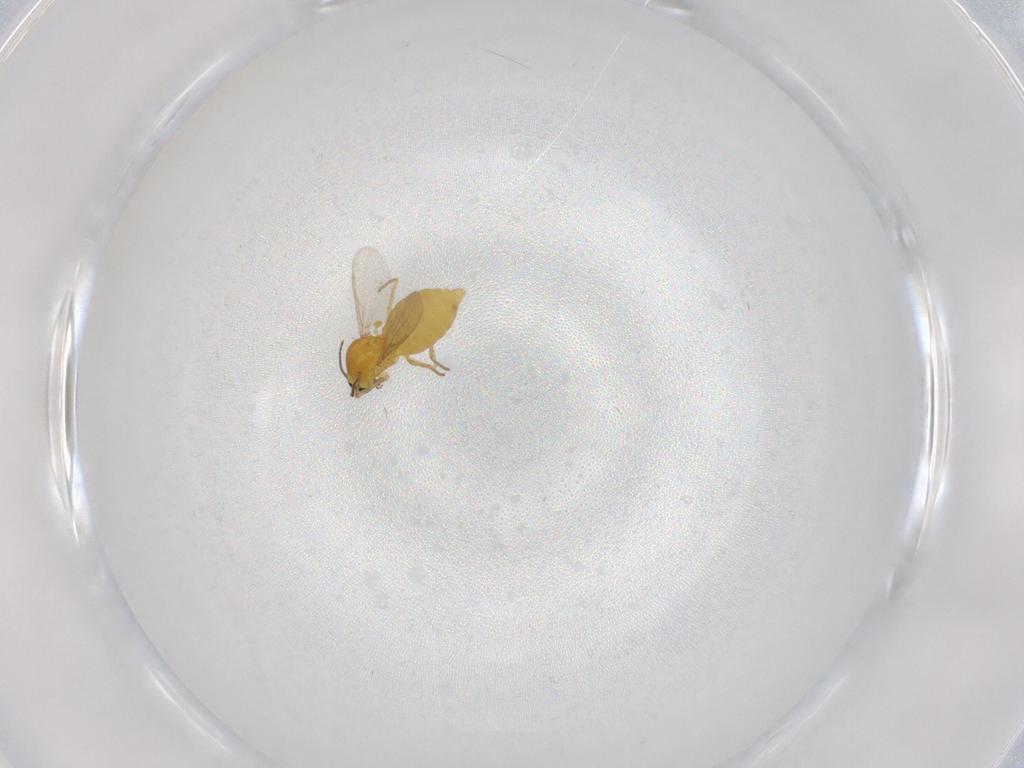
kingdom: Animalia
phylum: Arthropoda
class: Insecta
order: Diptera
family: Ceratopogonidae
